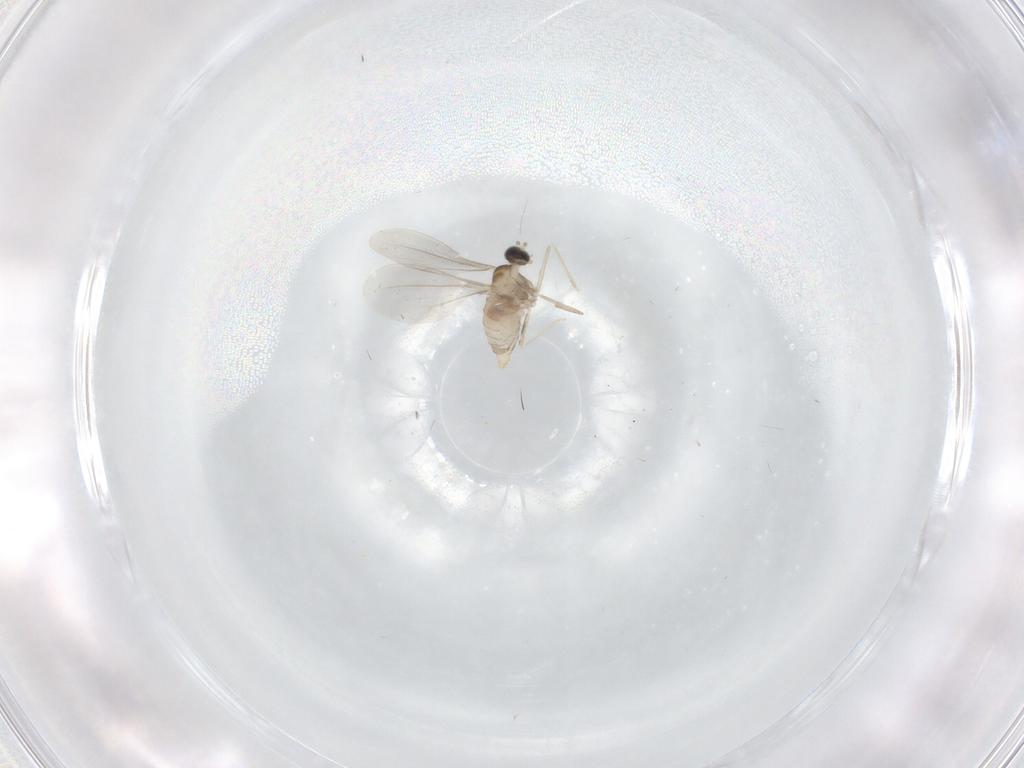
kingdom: Animalia
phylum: Arthropoda
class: Insecta
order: Diptera
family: Cecidomyiidae
